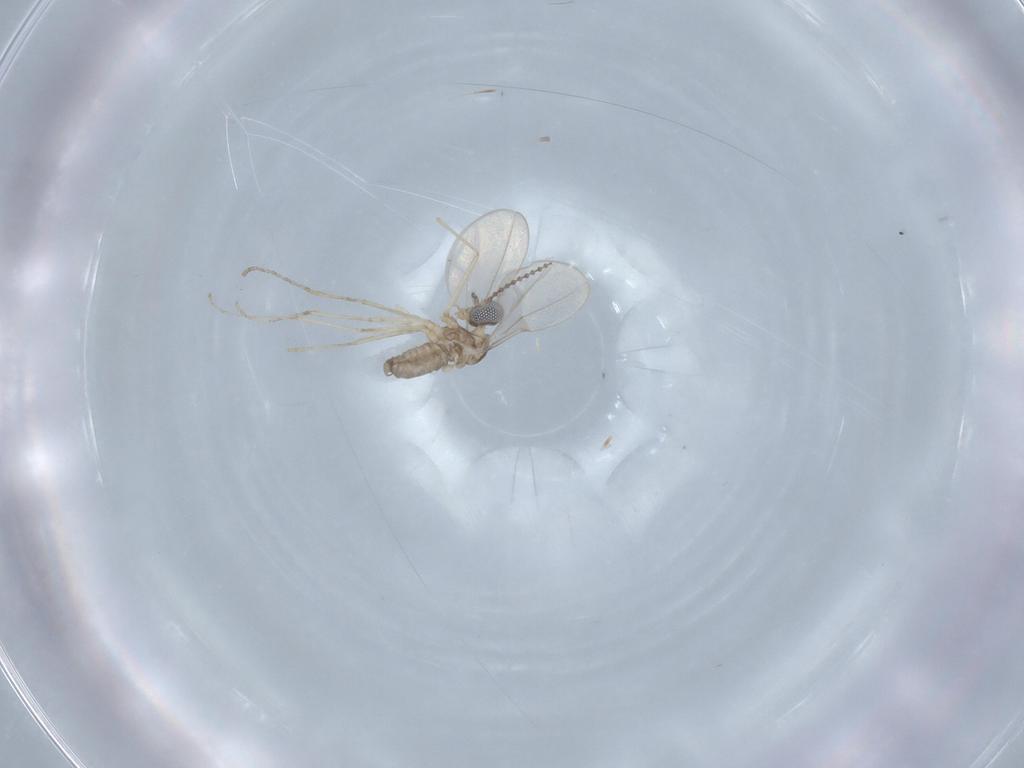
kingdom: Animalia
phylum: Arthropoda
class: Insecta
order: Diptera
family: Cecidomyiidae
